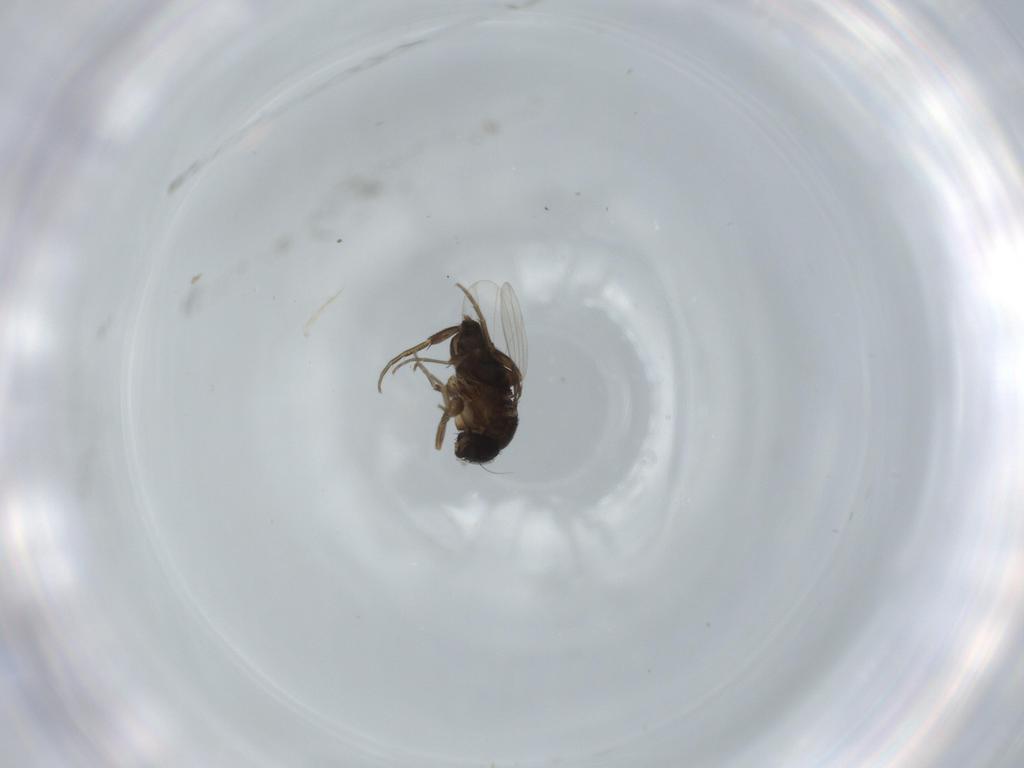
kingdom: Animalia
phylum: Arthropoda
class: Insecta
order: Diptera
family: Phoridae
